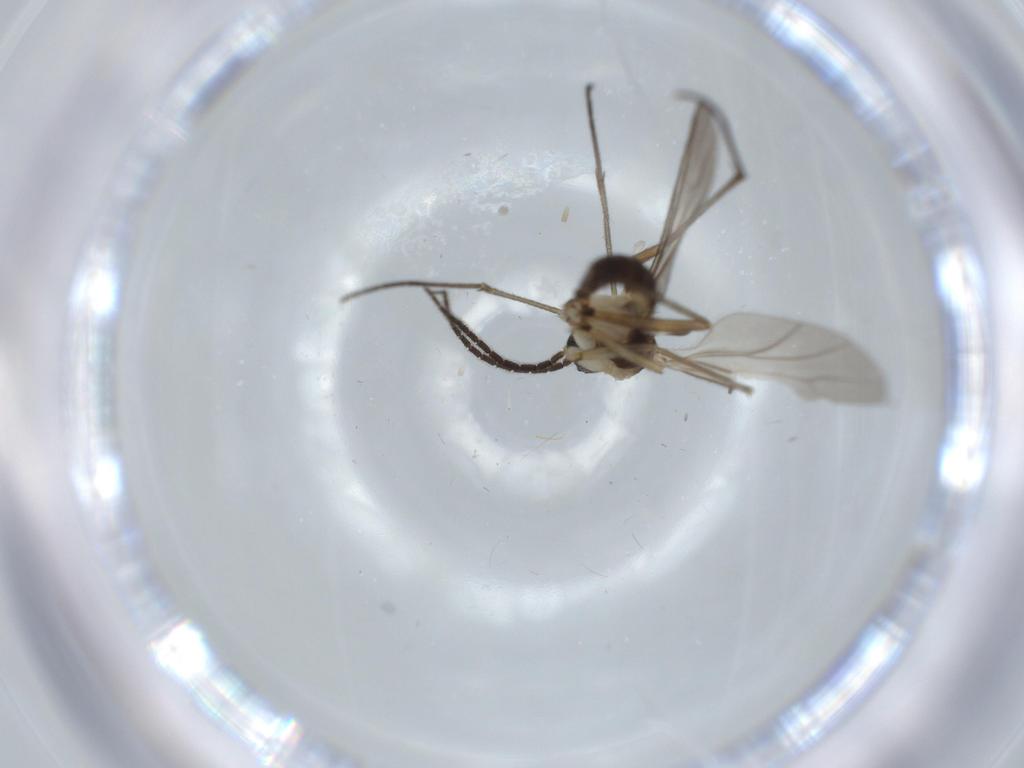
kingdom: Animalia
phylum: Arthropoda
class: Insecta
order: Diptera
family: Sciaridae
